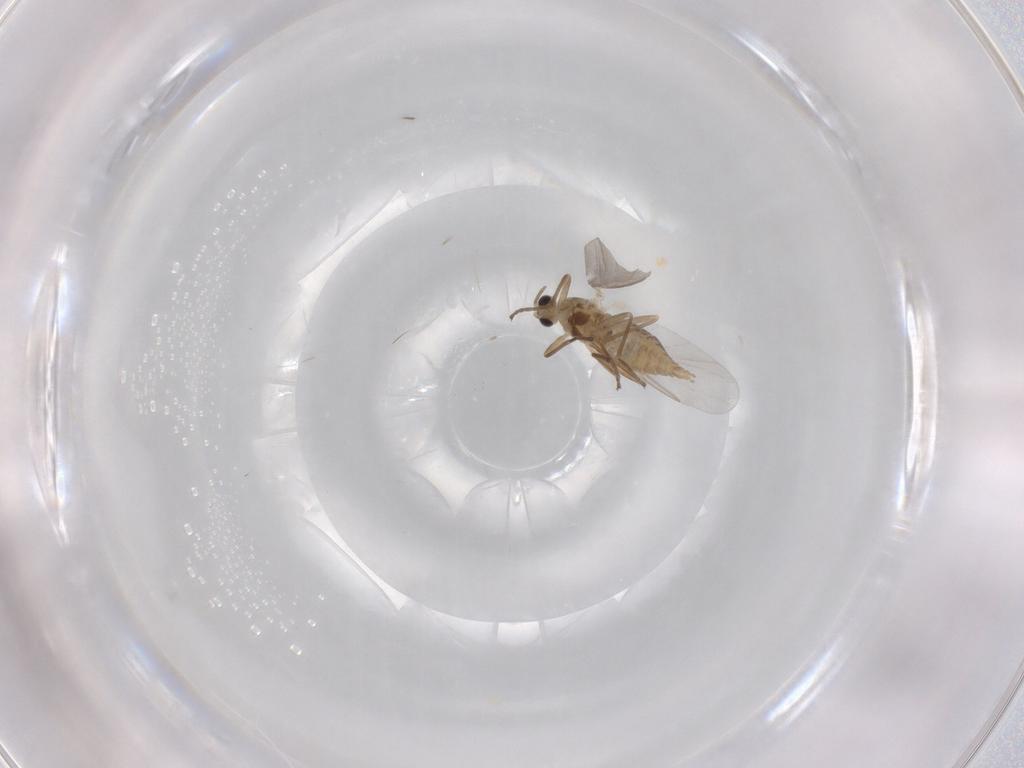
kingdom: Animalia
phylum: Arthropoda
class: Insecta
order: Diptera
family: Cecidomyiidae
